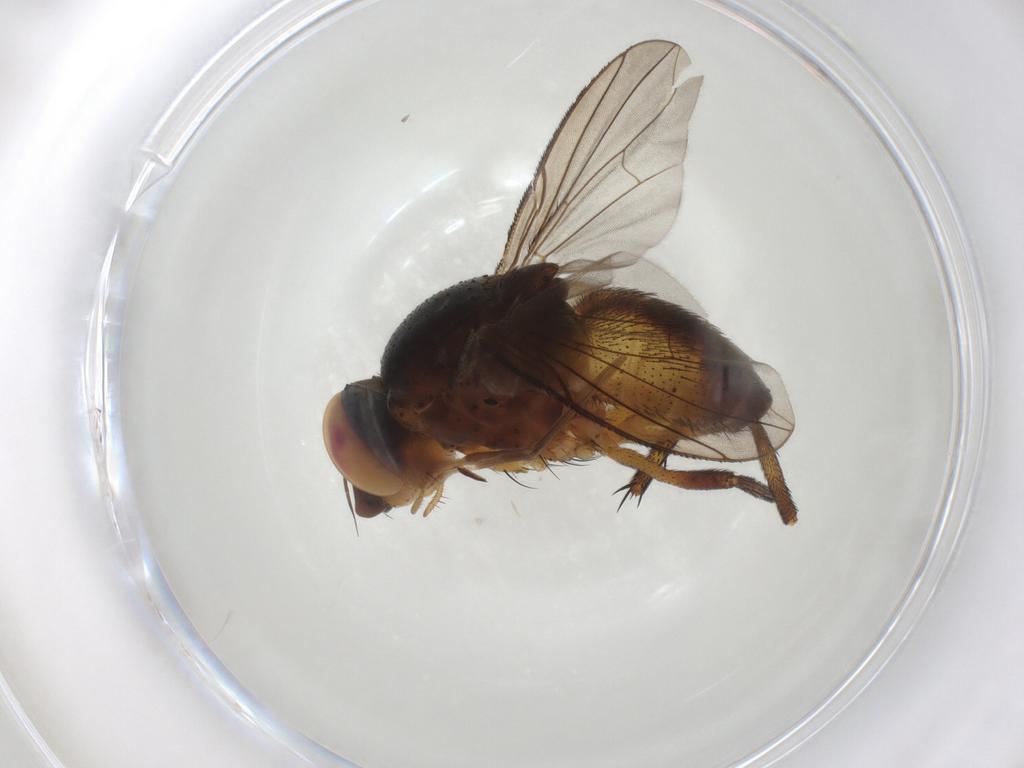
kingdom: Animalia
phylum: Arthropoda
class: Insecta
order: Diptera
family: Tachinidae
